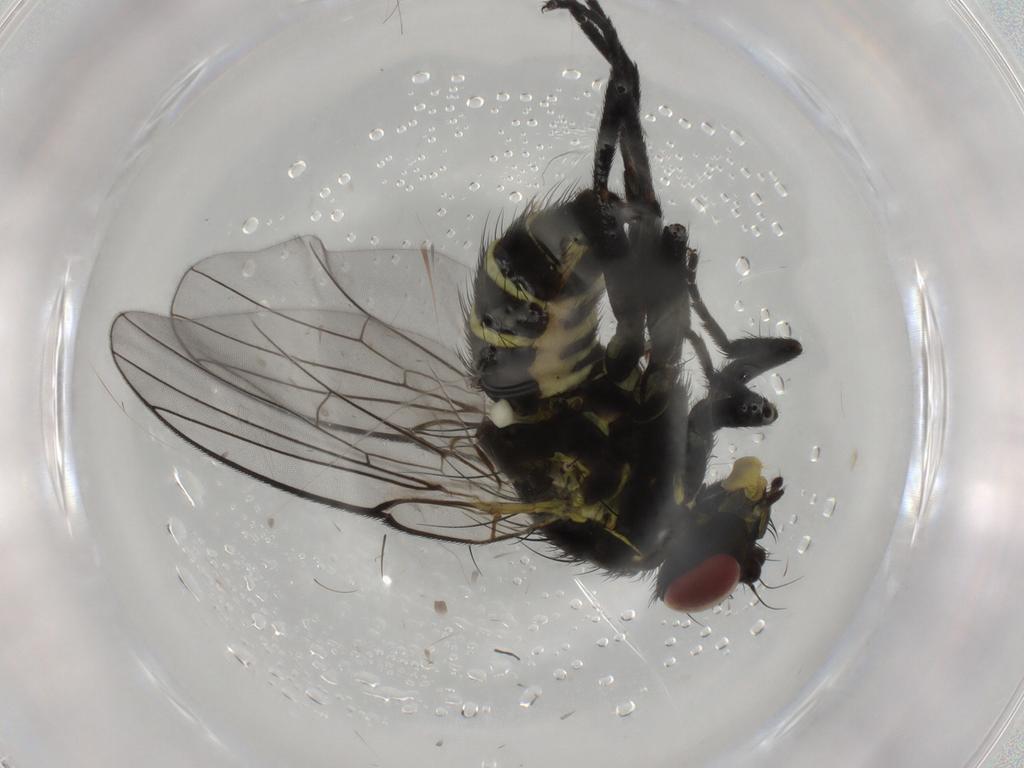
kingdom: Animalia
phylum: Arthropoda
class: Insecta
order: Diptera
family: Agromyzidae
